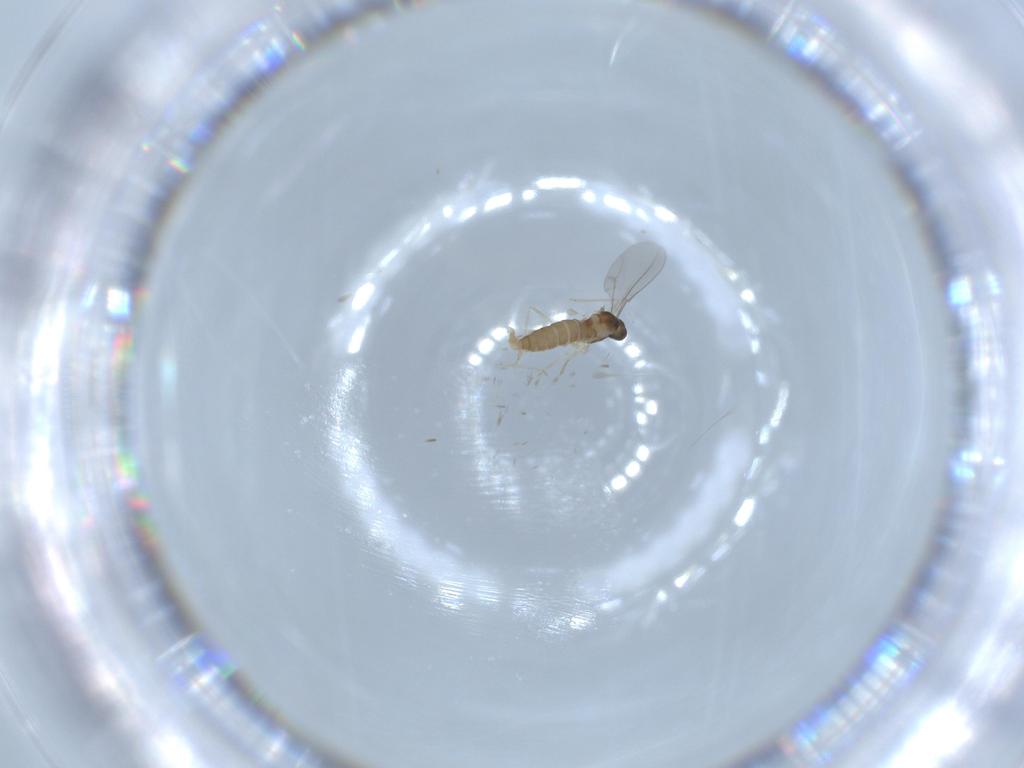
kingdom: Animalia
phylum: Arthropoda
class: Insecta
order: Diptera
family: Cecidomyiidae
